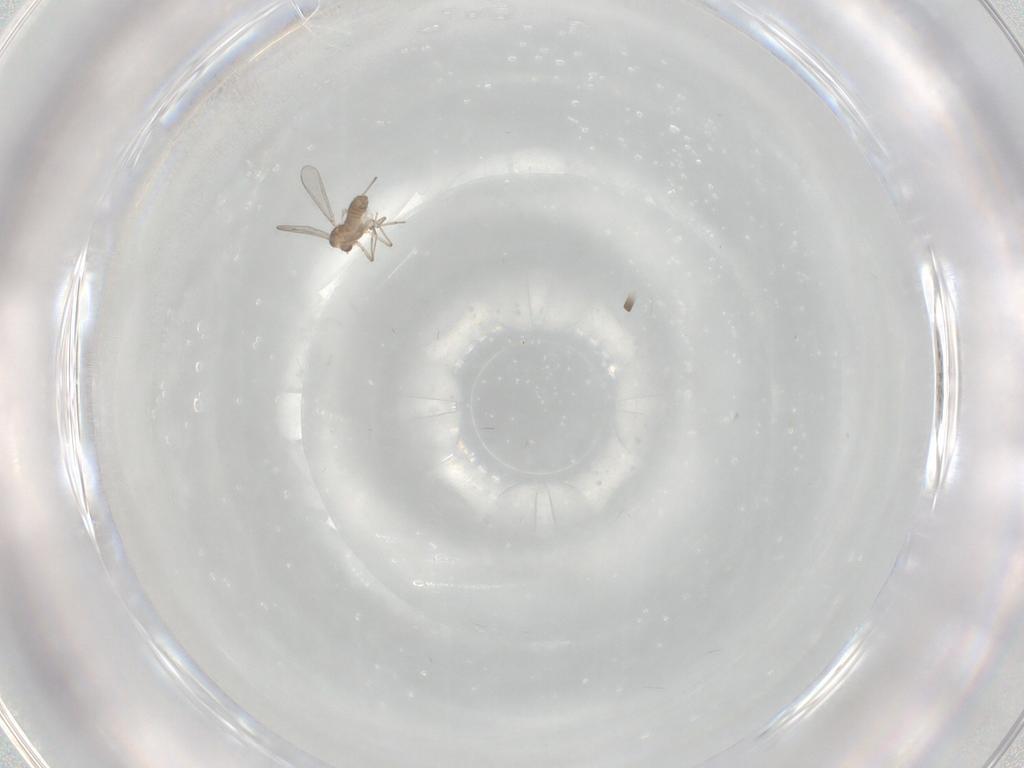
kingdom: Animalia
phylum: Arthropoda
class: Insecta
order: Diptera
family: Chironomidae
